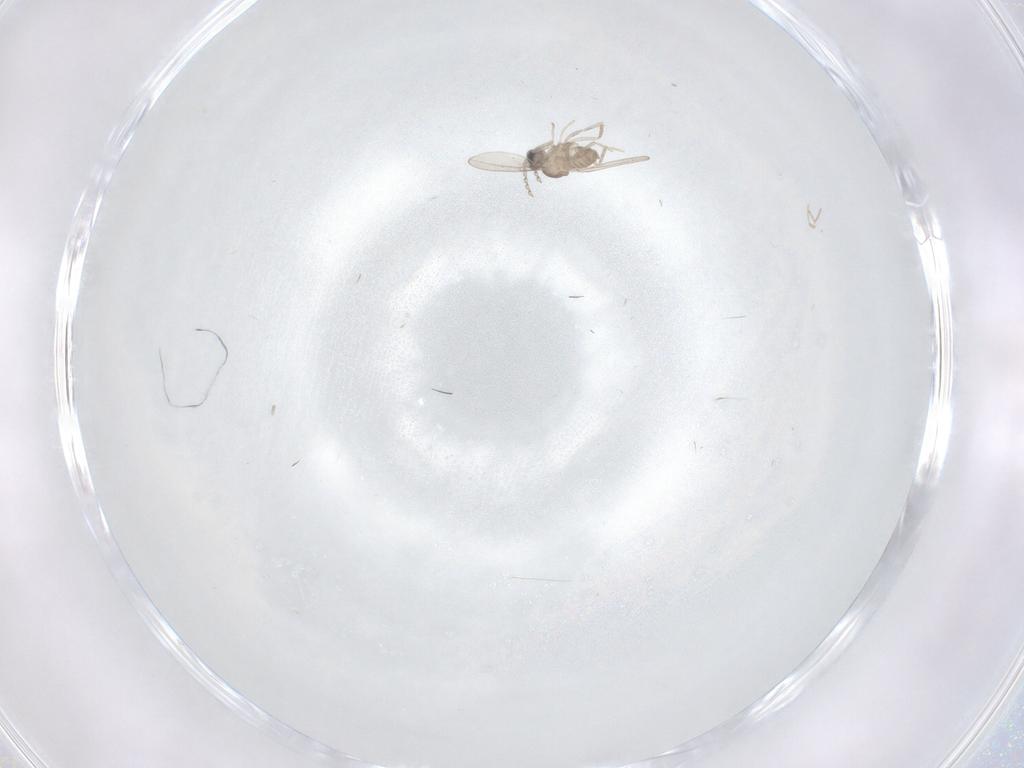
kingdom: Animalia
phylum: Arthropoda
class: Insecta
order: Diptera
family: Cecidomyiidae
